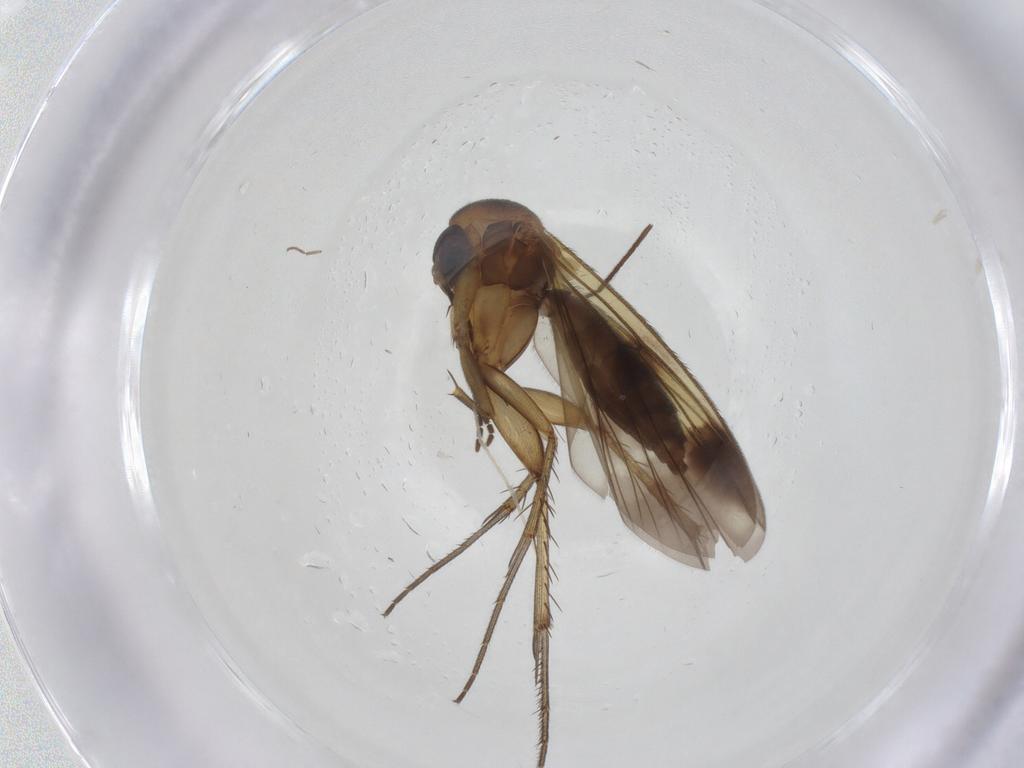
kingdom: Animalia
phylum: Arthropoda
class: Insecta
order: Diptera
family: Chironomidae
